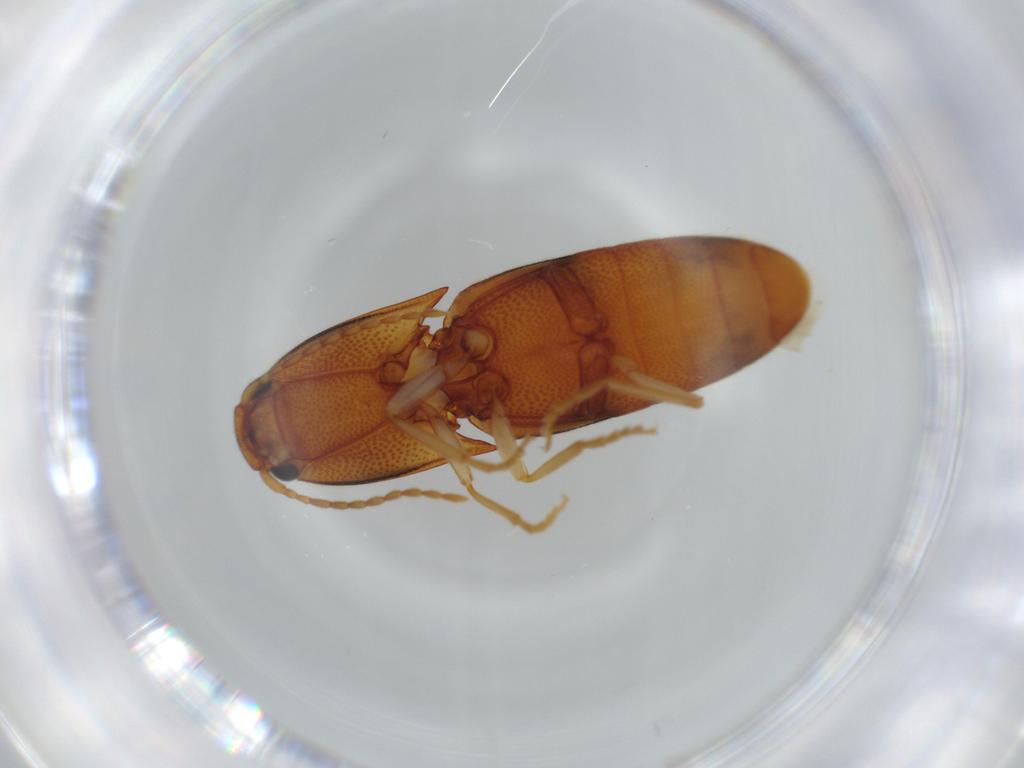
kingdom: Animalia
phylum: Arthropoda
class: Insecta
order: Coleoptera
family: Elateridae
